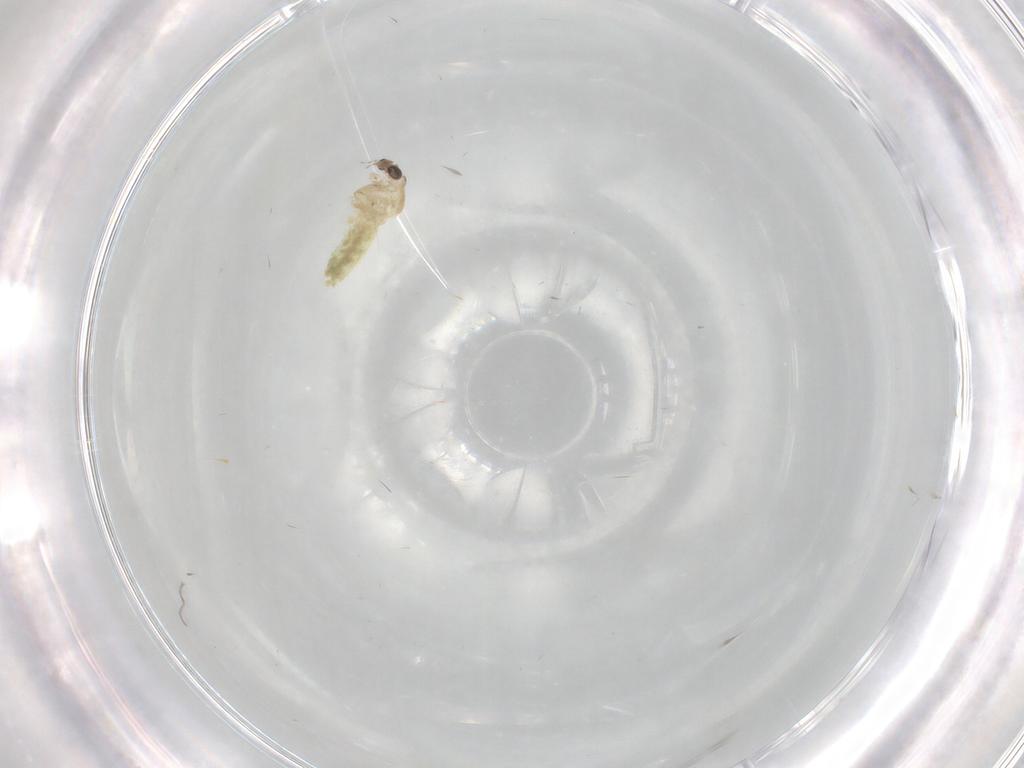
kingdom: Animalia
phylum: Arthropoda
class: Insecta
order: Diptera
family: Chironomidae
